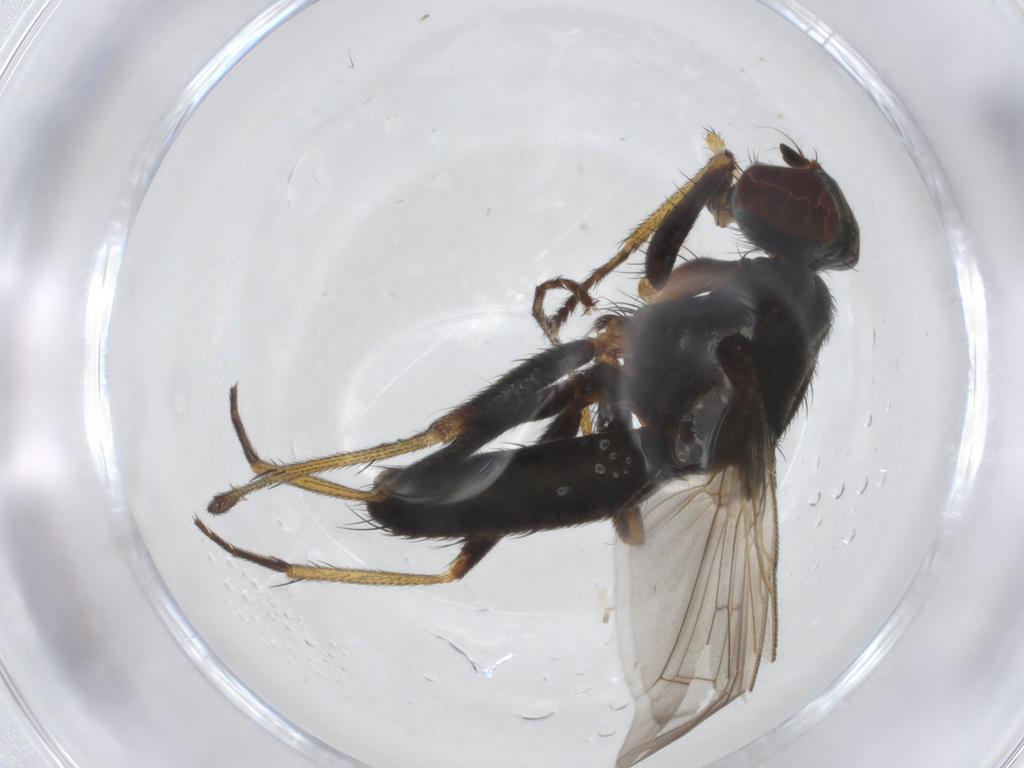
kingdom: Animalia
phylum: Arthropoda
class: Insecta
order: Diptera
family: Muscidae
